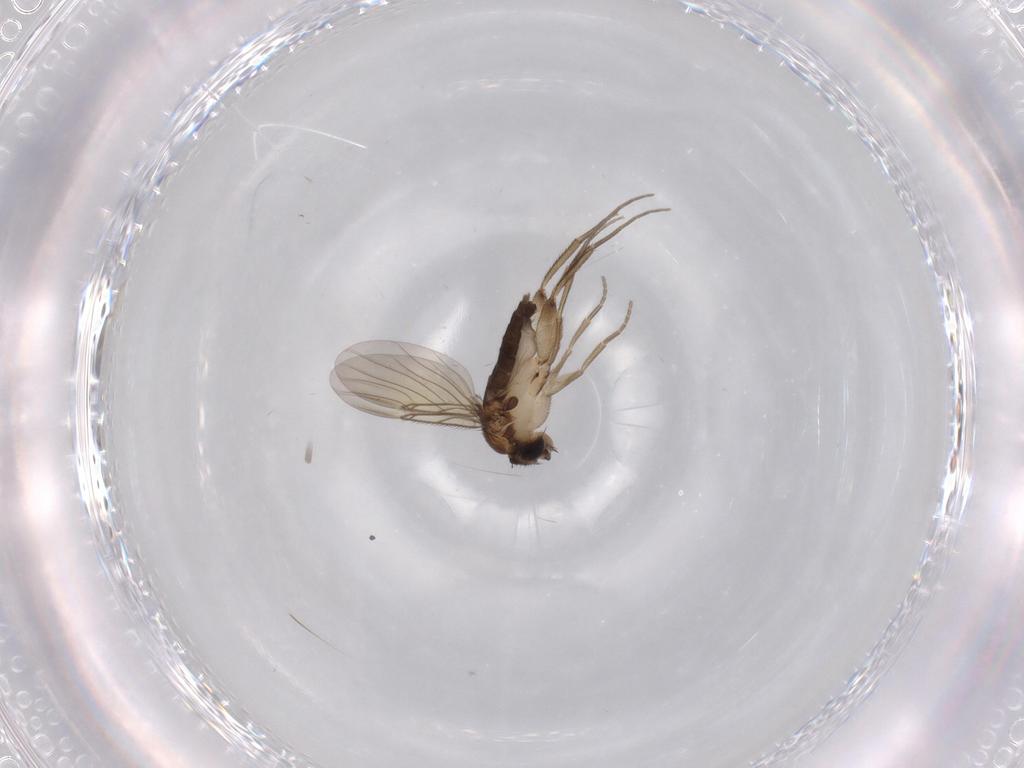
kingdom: Animalia
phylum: Arthropoda
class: Insecta
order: Diptera
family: Phoridae
